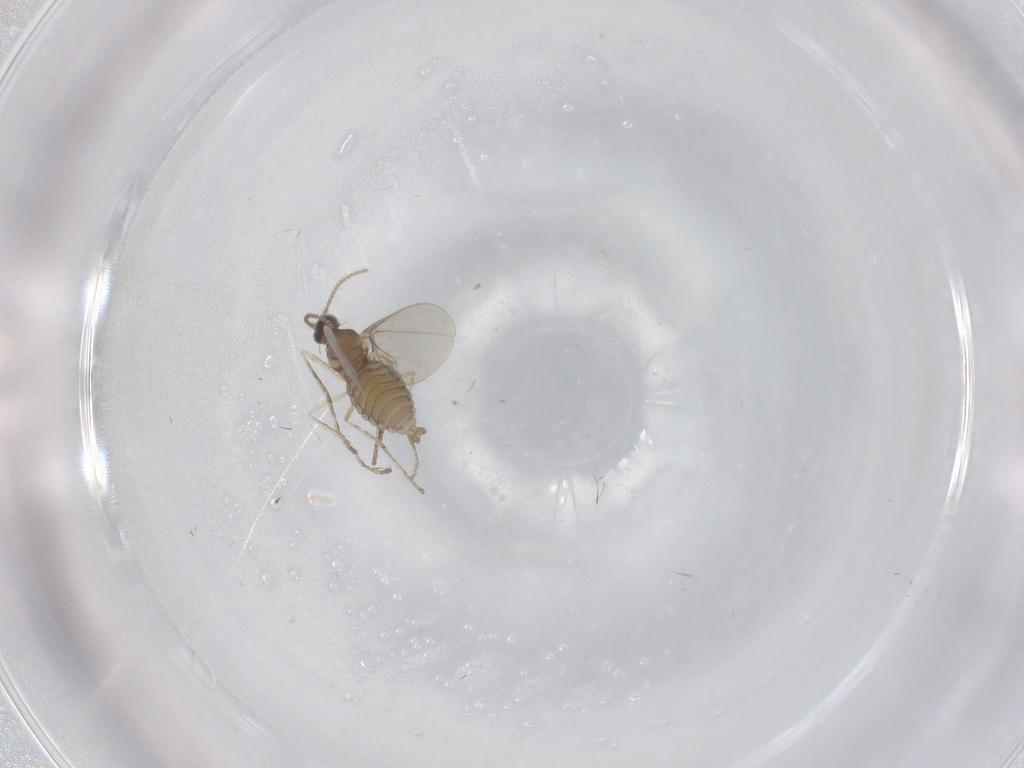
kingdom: Animalia
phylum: Arthropoda
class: Insecta
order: Diptera
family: Cecidomyiidae
